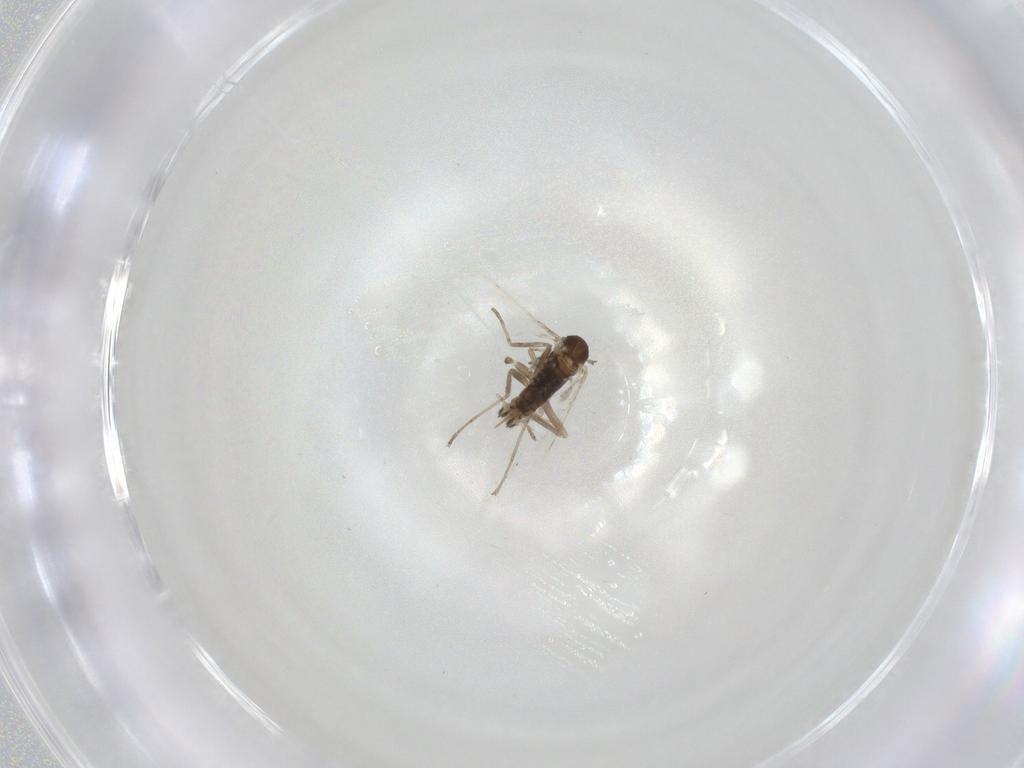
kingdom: Animalia
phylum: Arthropoda
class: Insecta
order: Diptera
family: Cecidomyiidae
